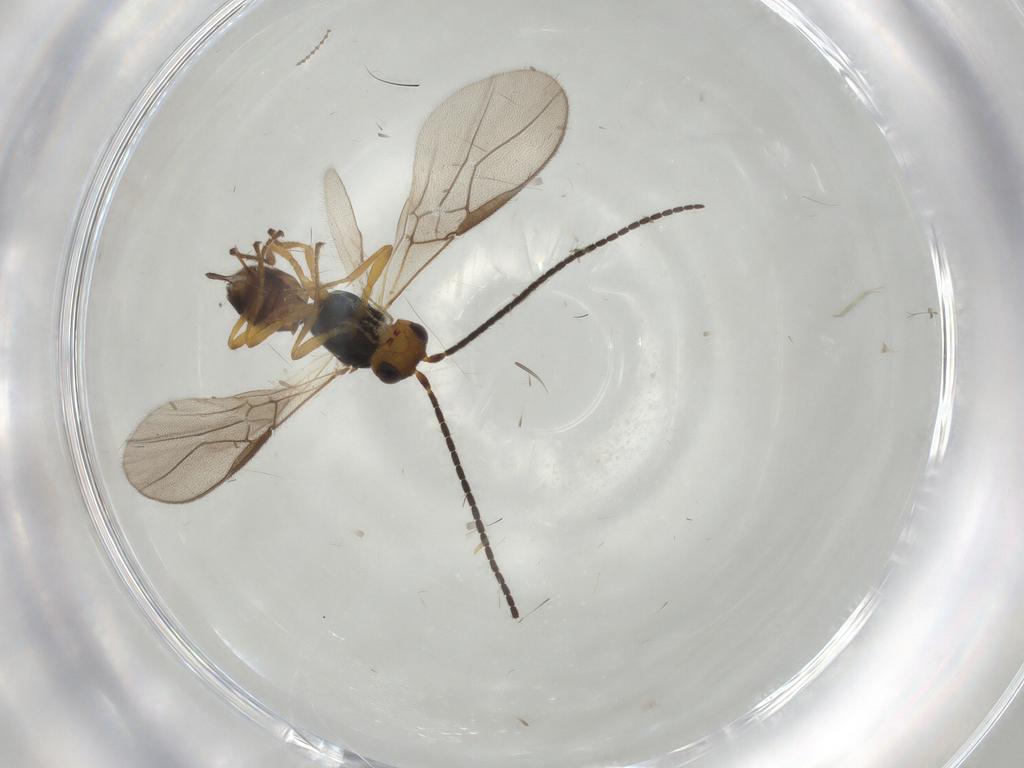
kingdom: Animalia
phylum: Arthropoda
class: Insecta
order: Hymenoptera
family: Braconidae
